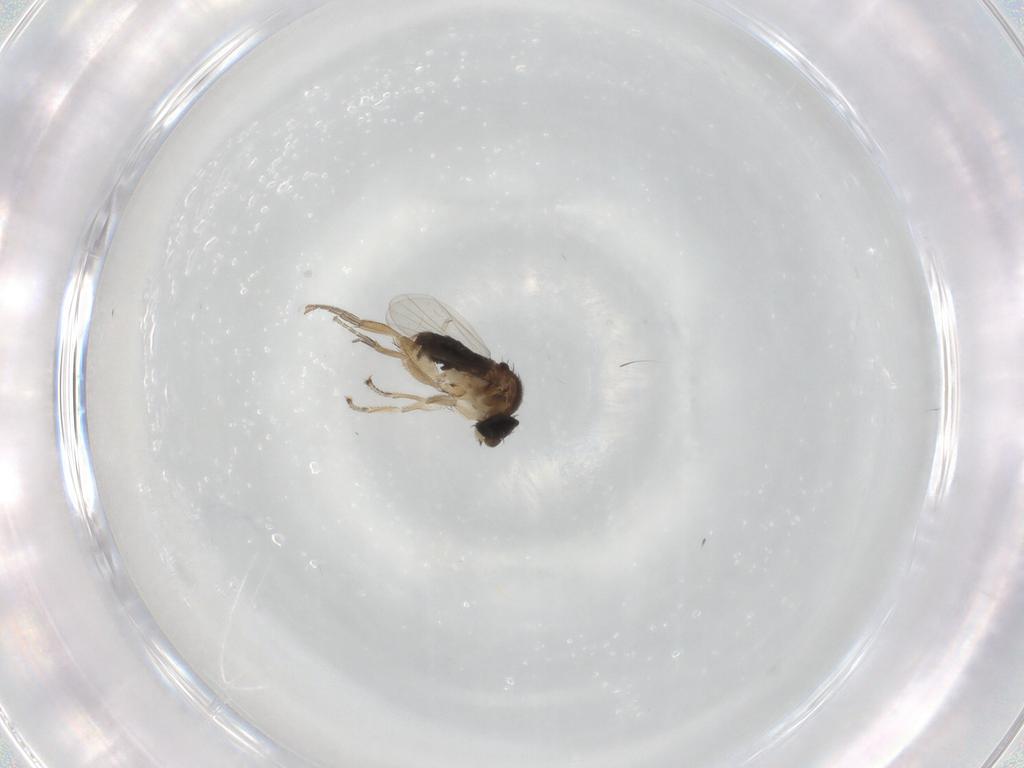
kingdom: Animalia
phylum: Arthropoda
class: Insecta
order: Diptera
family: Phoridae
